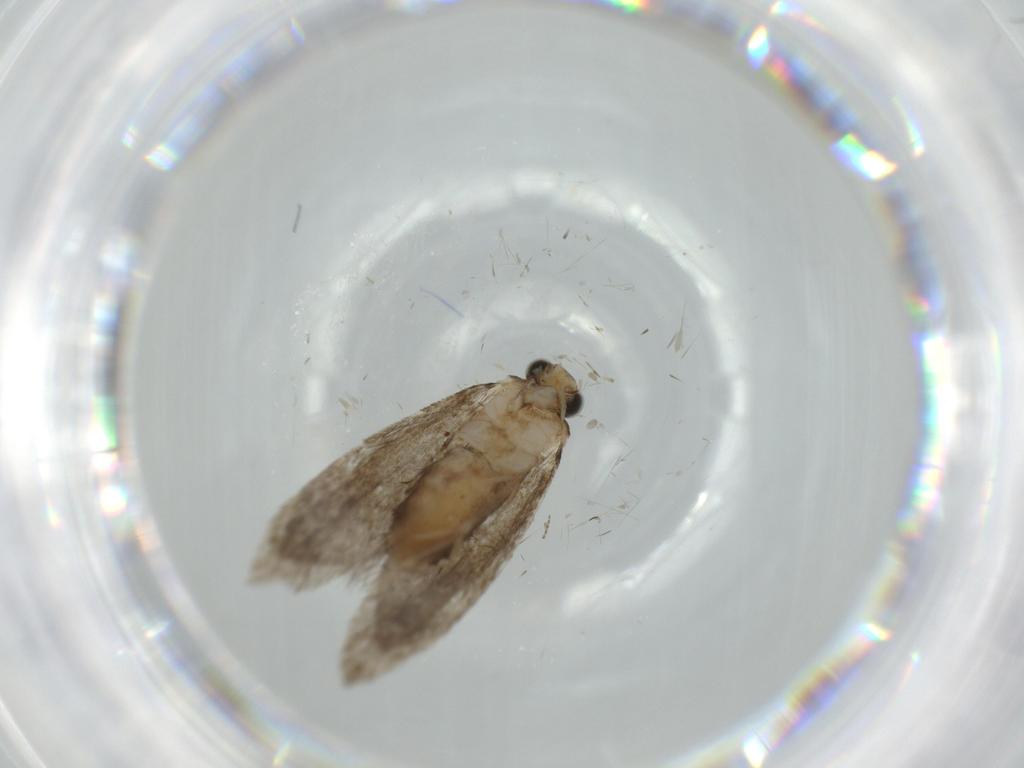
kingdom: Animalia
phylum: Arthropoda
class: Insecta
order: Lepidoptera
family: Tineidae
